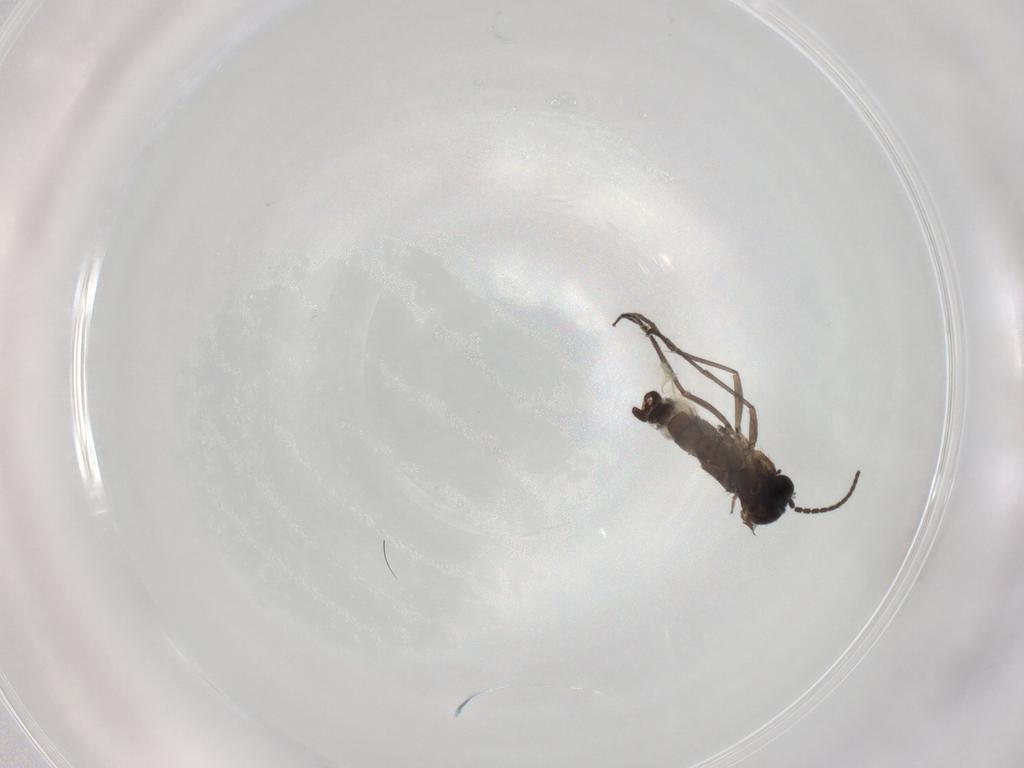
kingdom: Animalia
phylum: Arthropoda
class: Insecta
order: Diptera
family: Sciaridae
